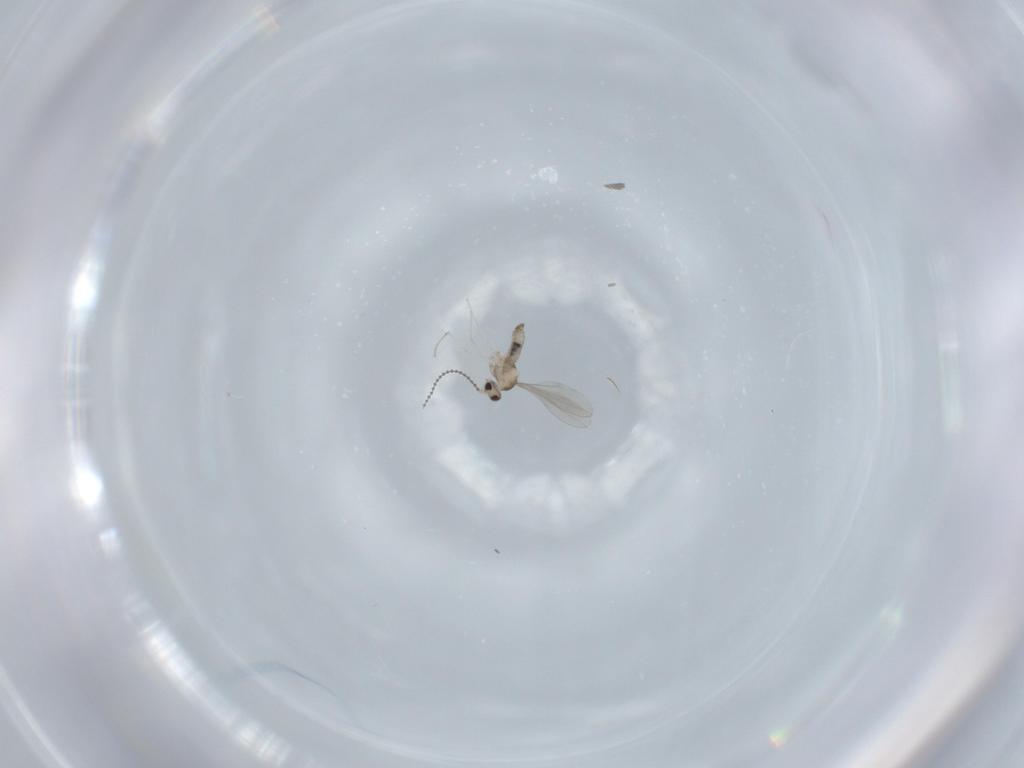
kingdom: Animalia
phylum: Arthropoda
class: Insecta
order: Diptera
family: Cecidomyiidae
